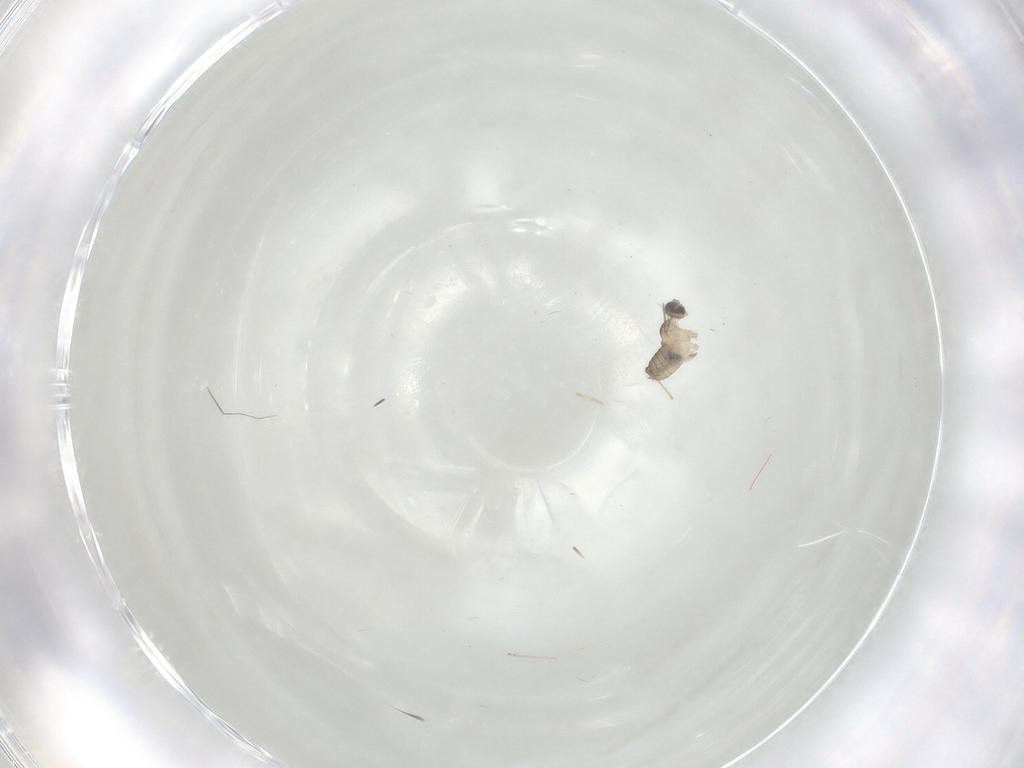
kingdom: Animalia
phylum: Arthropoda
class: Insecta
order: Diptera
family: Cecidomyiidae
